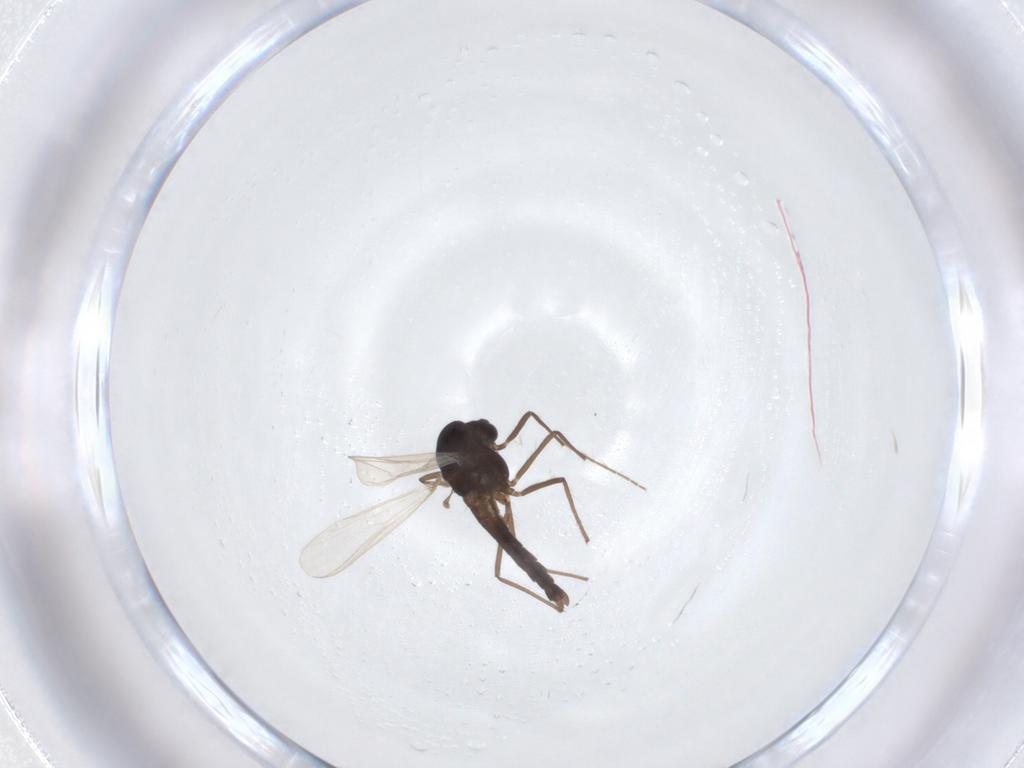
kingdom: Animalia
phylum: Arthropoda
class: Insecta
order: Diptera
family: Chironomidae
